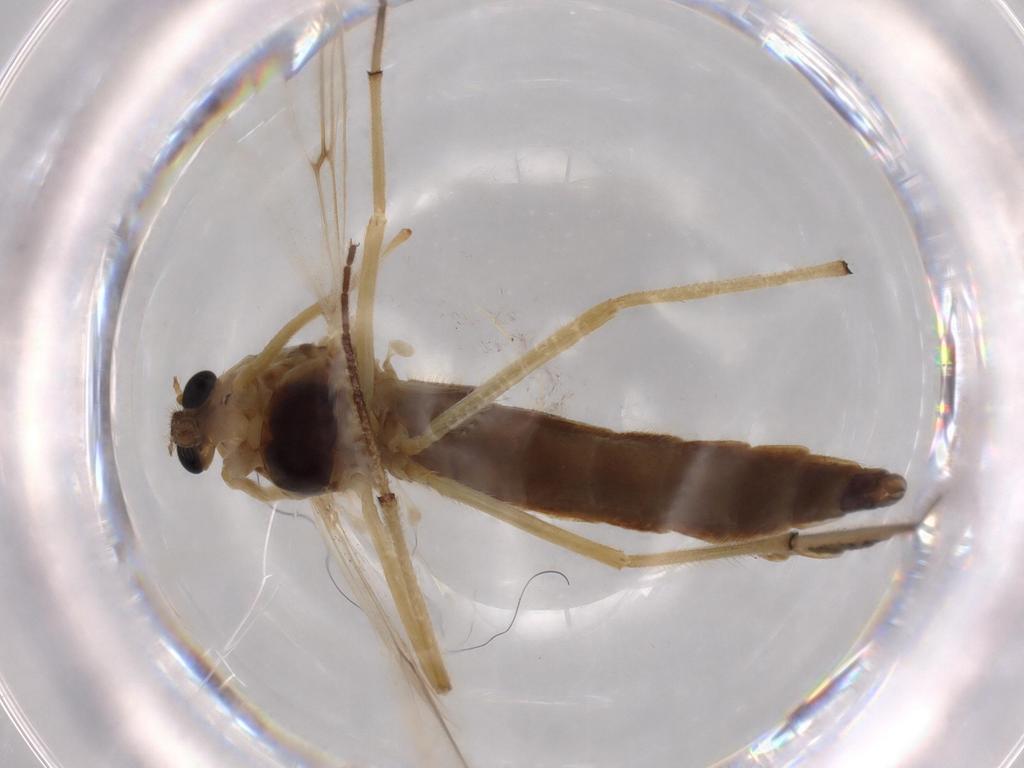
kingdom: Animalia
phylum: Arthropoda
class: Insecta
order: Diptera
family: Chironomidae
